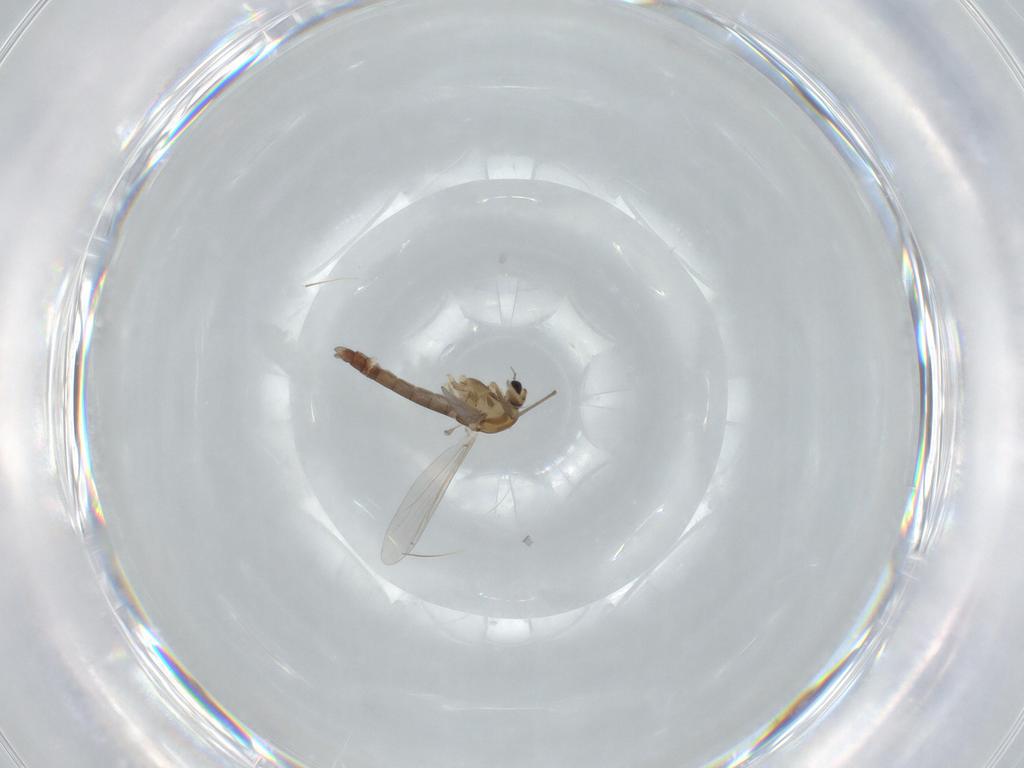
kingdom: Animalia
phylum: Arthropoda
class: Insecta
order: Diptera
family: Chironomidae
